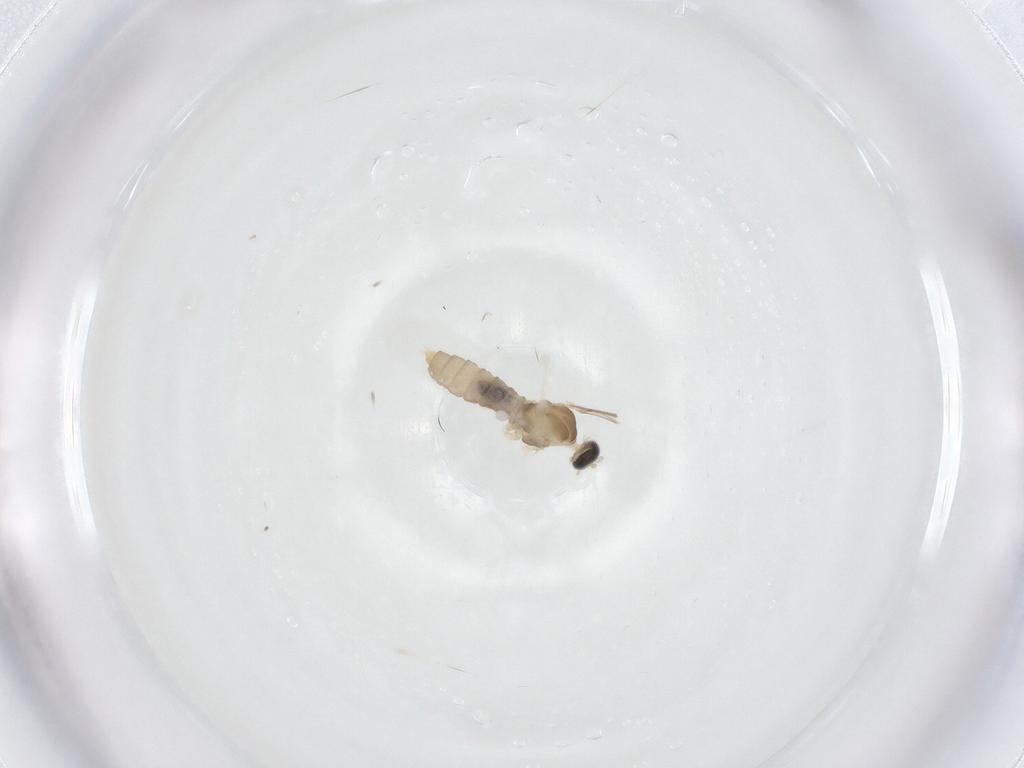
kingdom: Animalia
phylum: Arthropoda
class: Insecta
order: Diptera
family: Cecidomyiidae
